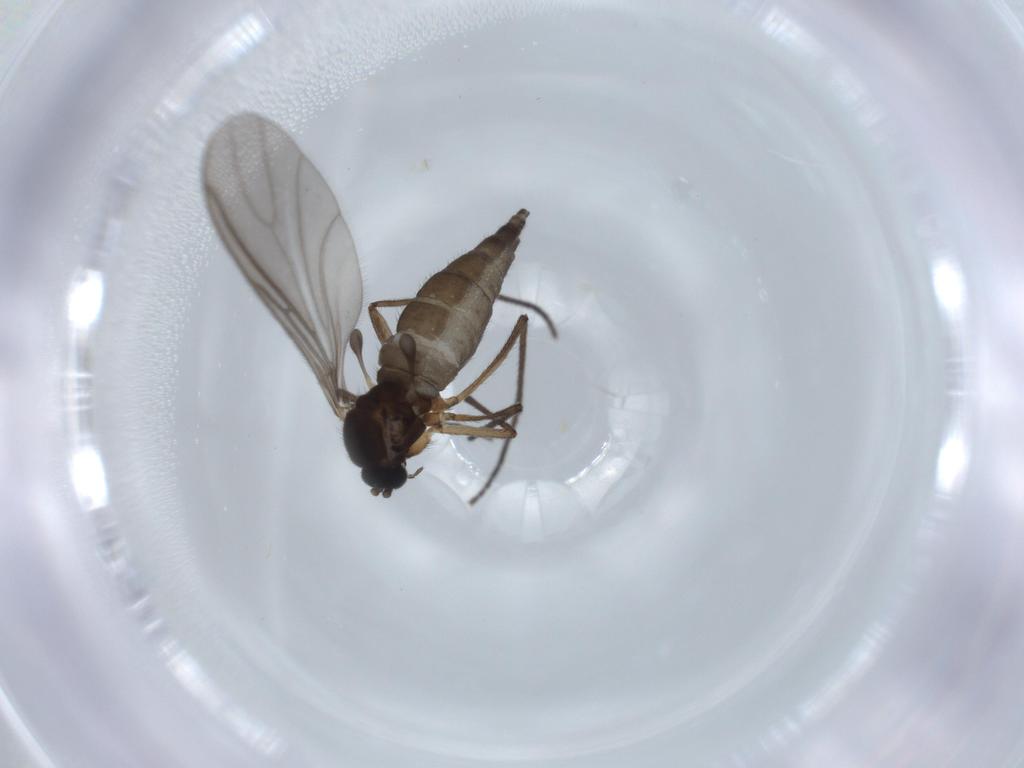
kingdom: Animalia
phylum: Arthropoda
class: Insecta
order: Diptera
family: Sciaridae
